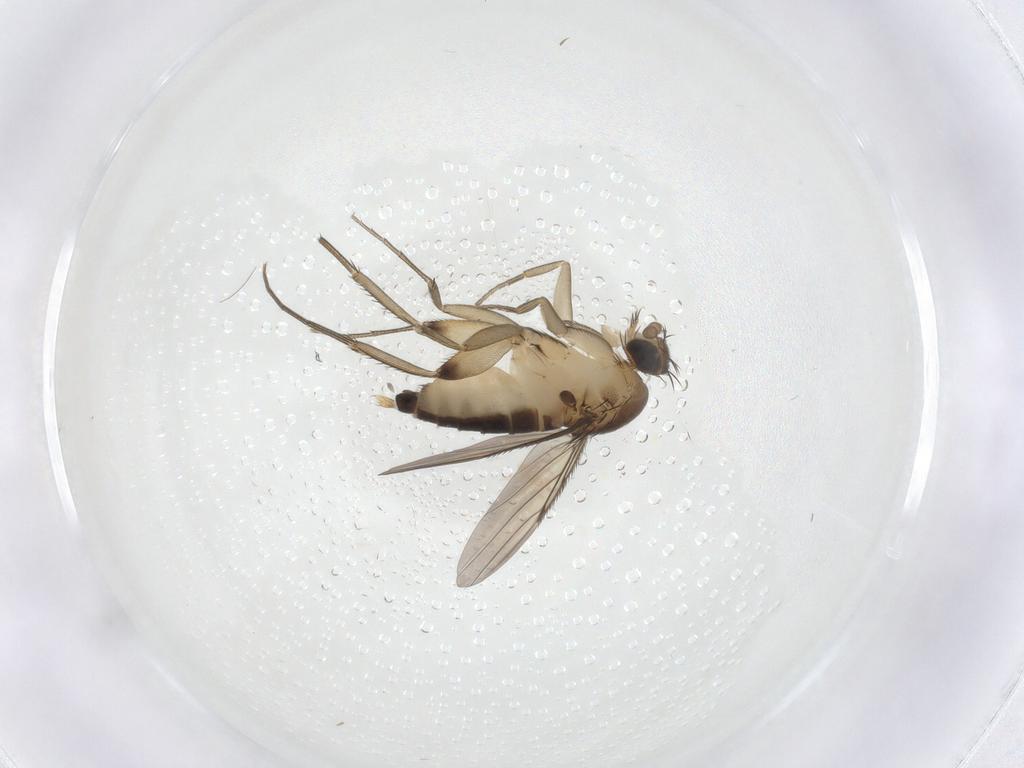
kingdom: Animalia
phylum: Arthropoda
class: Insecta
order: Diptera
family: Phoridae
